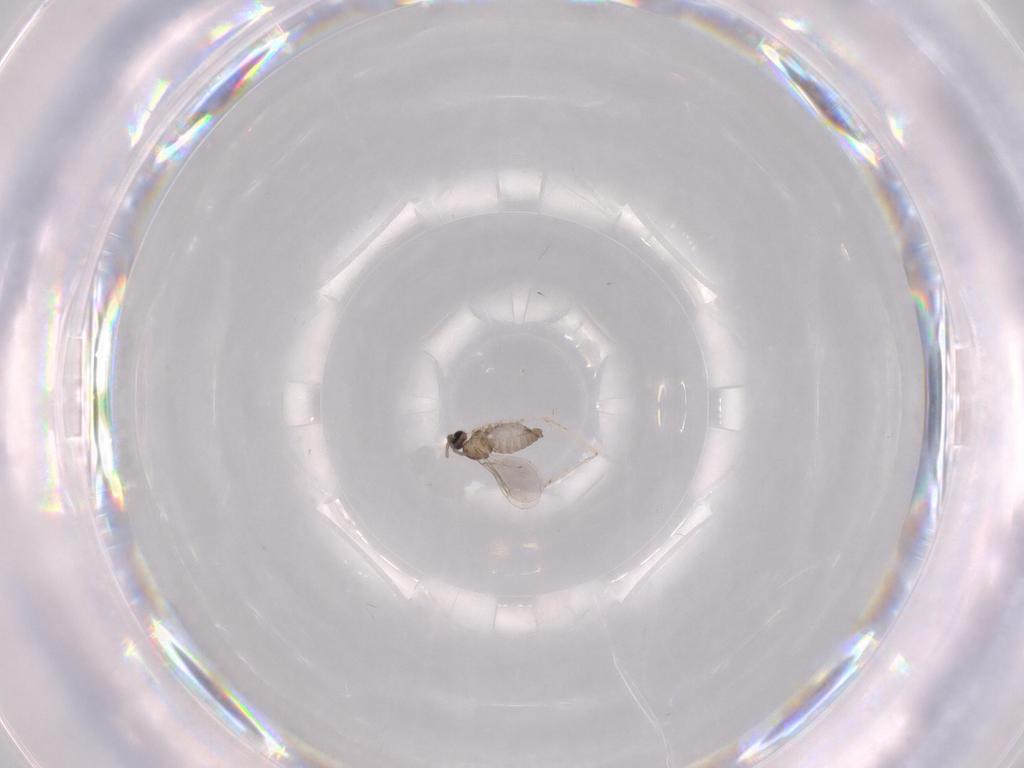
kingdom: Animalia
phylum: Arthropoda
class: Insecta
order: Diptera
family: Cecidomyiidae
